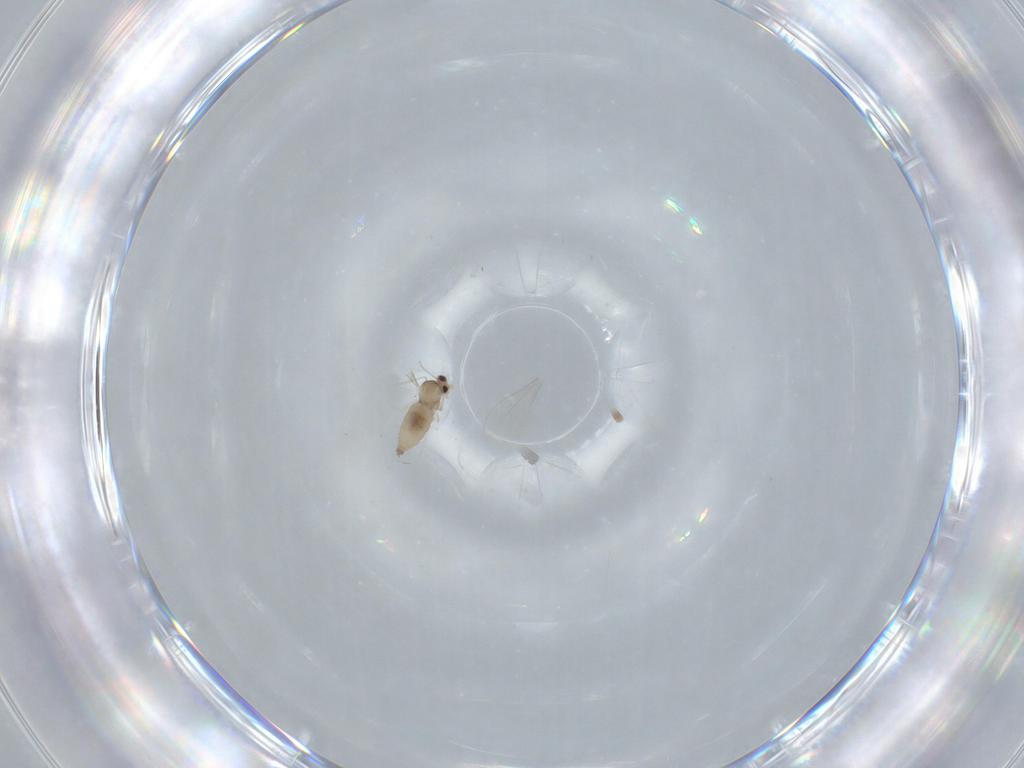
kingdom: Animalia
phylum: Arthropoda
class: Insecta
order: Diptera
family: Cecidomyiidae
